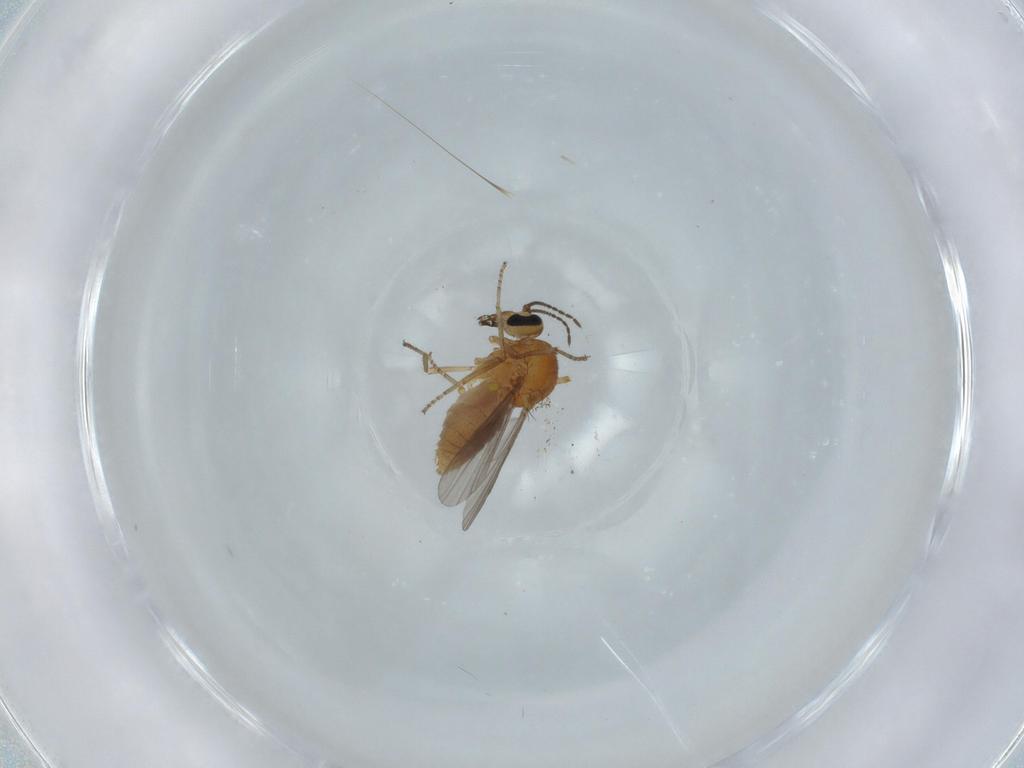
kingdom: Animalia
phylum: Arthropoda
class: Insecta
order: Diptera
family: Ceratopogonidae
